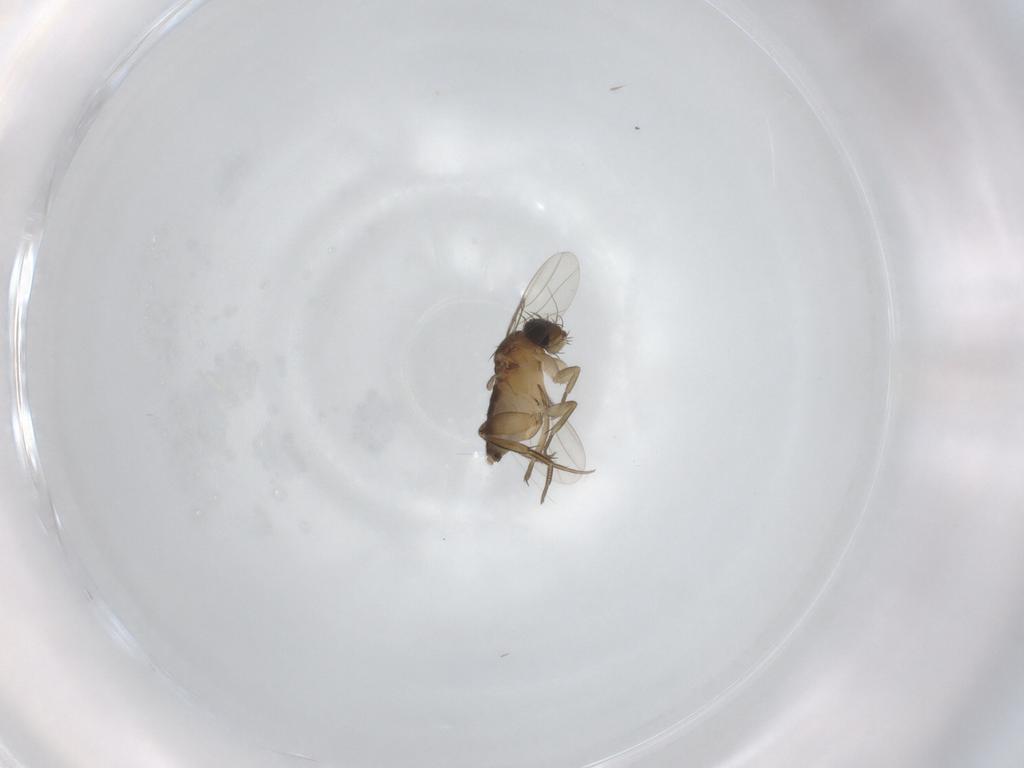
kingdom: Animalia
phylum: Arthropoda
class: Insecta
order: Diptera
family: Phoridae
